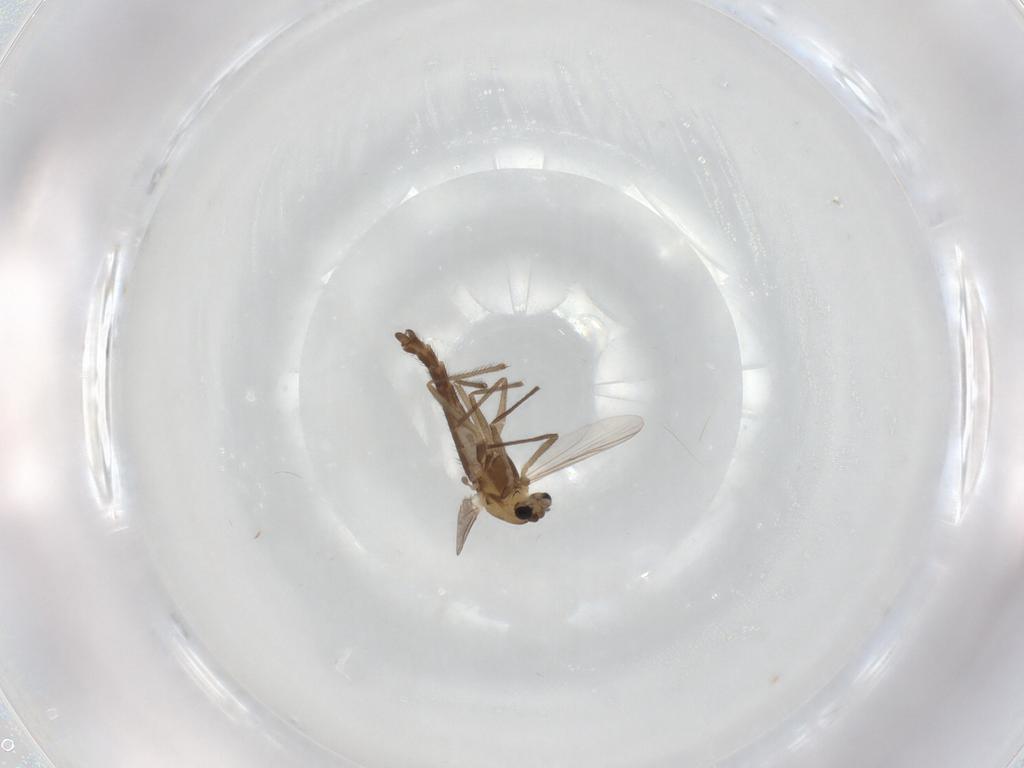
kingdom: Animalia
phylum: Arthropoda
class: Insecta
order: Diptera
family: Chironomidae
